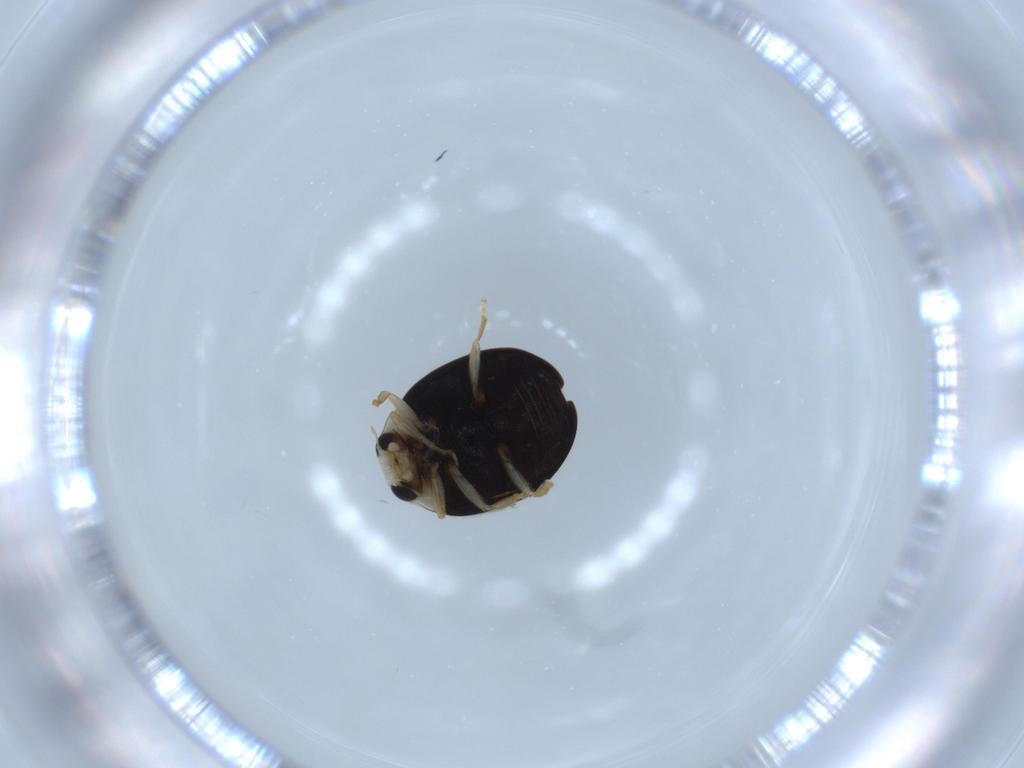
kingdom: Animalia
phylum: Arthropoda
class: Insecta
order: Coleoptera
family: Coccinellidae
